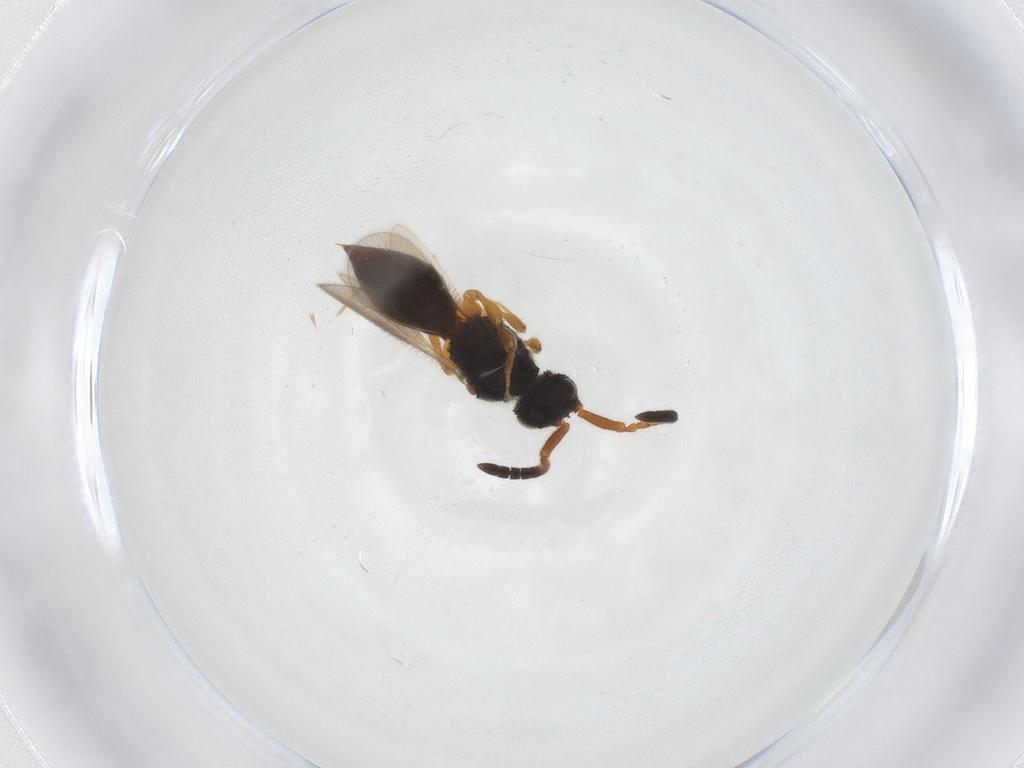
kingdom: Animalia
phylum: Arthropoda
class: Insecta
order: Hymenoptera
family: Megaspilidae
